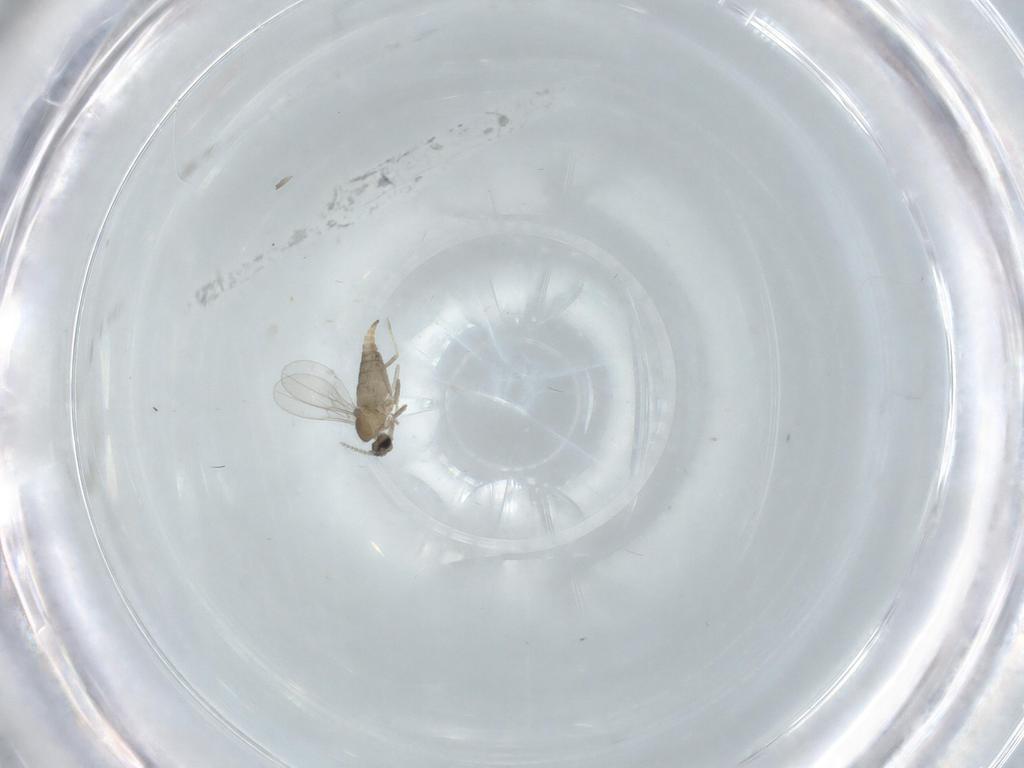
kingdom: Animalia
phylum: Arthropoda
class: Insecta
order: Diptera
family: Cecidomyiidae
